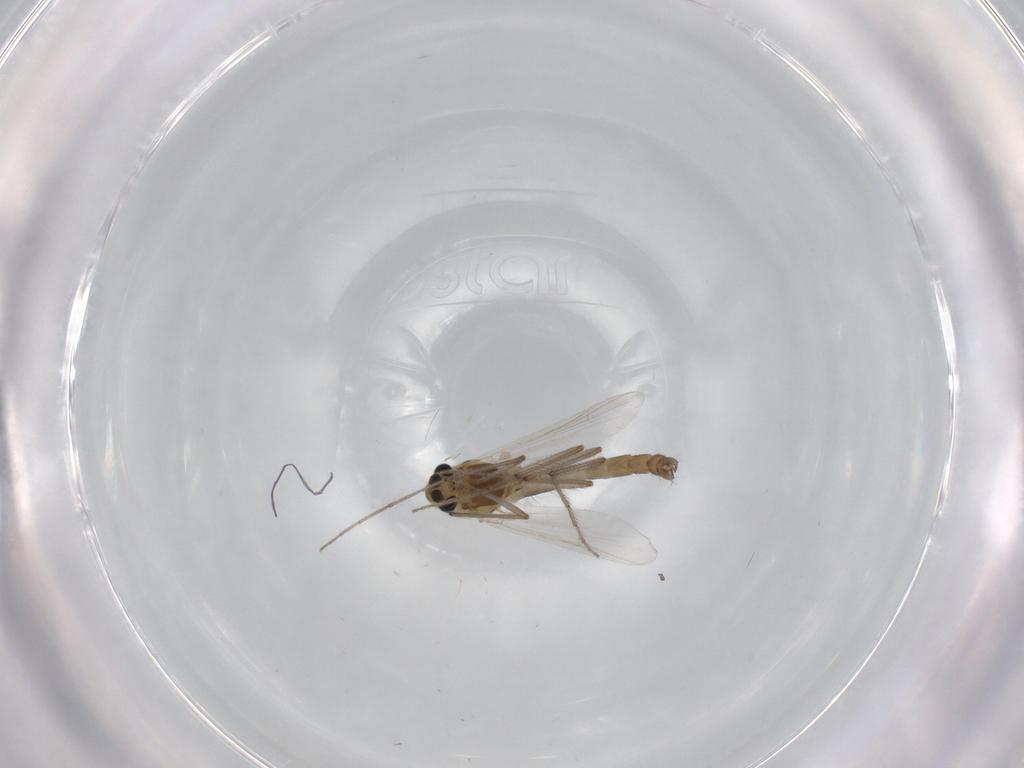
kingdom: Animalia
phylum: Arthropoda
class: Insecta
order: Diptera
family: Chironomidae
